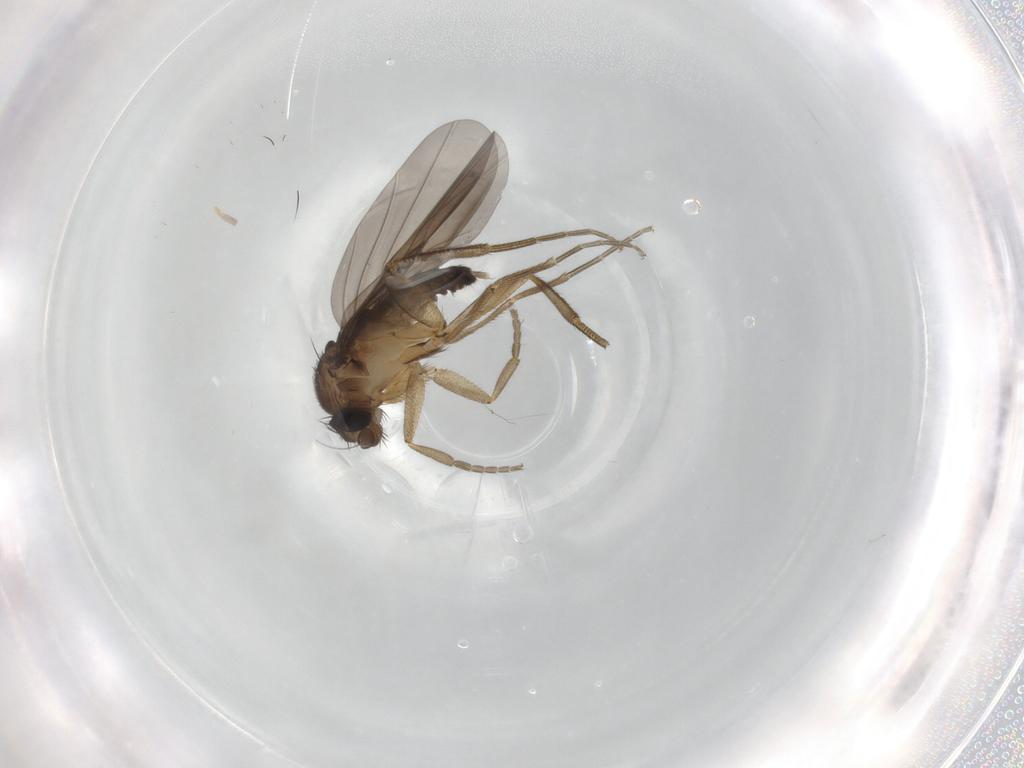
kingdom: Animalia
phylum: Arthropoda
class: Insecta
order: Diptera
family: Phoridae
